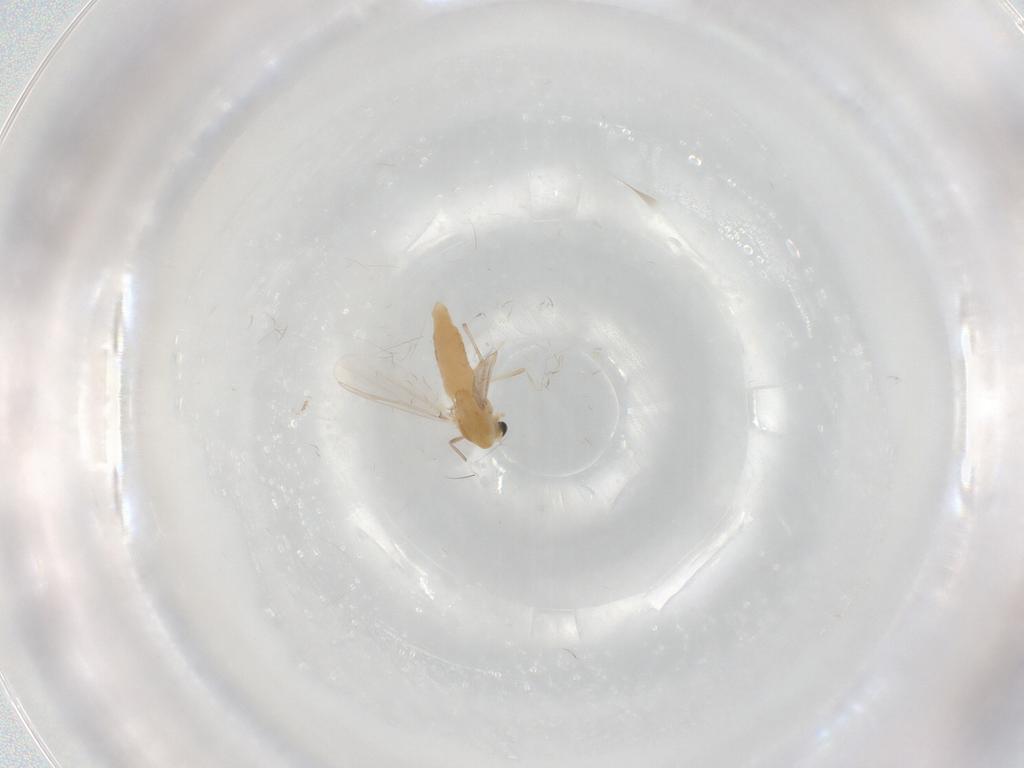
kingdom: Animalia
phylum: Arthropoda
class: Insecta
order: Diptera
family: Chironomidae
